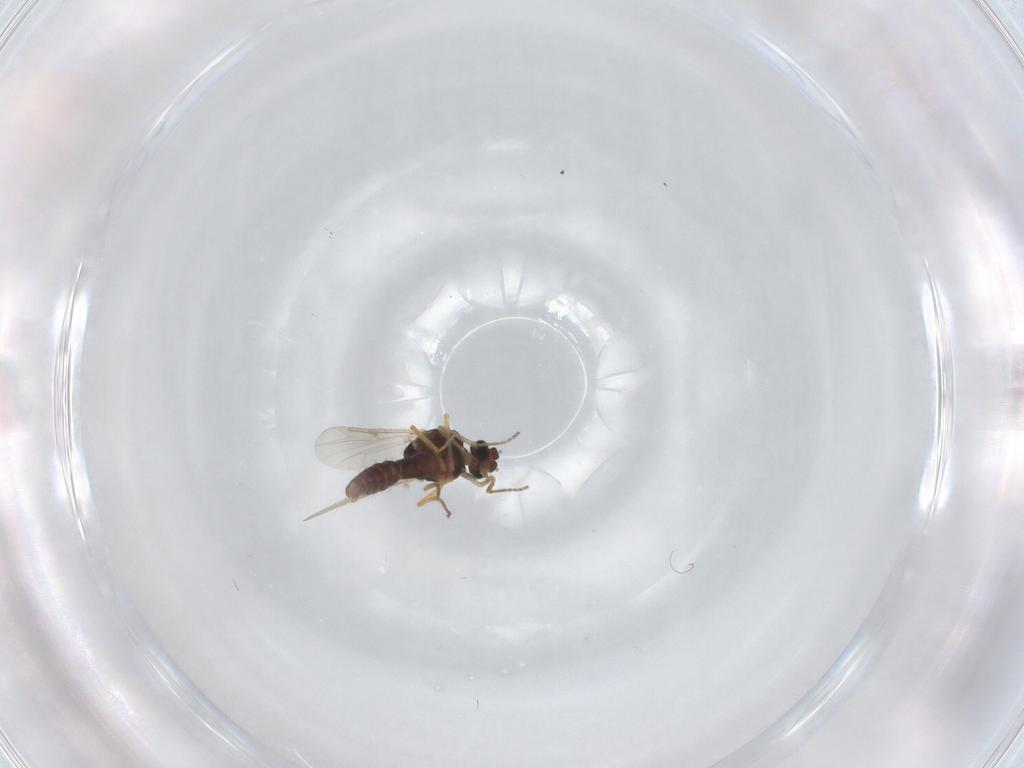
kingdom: Animalia
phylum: Arthropoda
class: Insecta
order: Diptera
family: Ceratopogonidae
